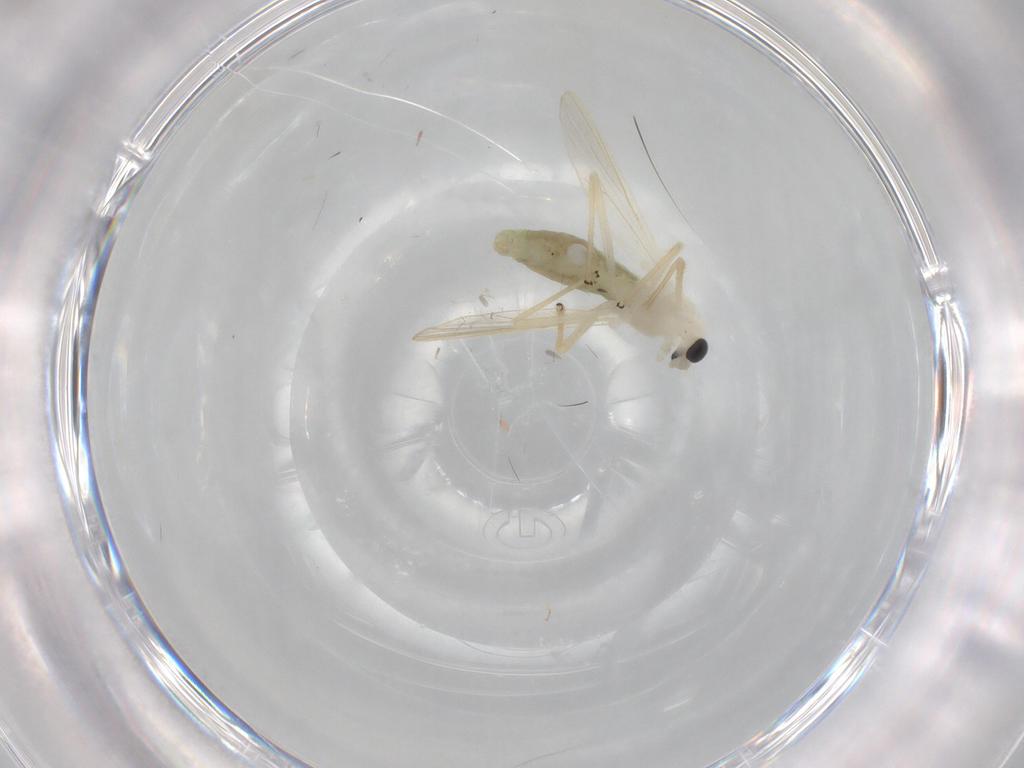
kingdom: Animalia
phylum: Arthropoda
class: Insecta
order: Diptera
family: Chironomidae
